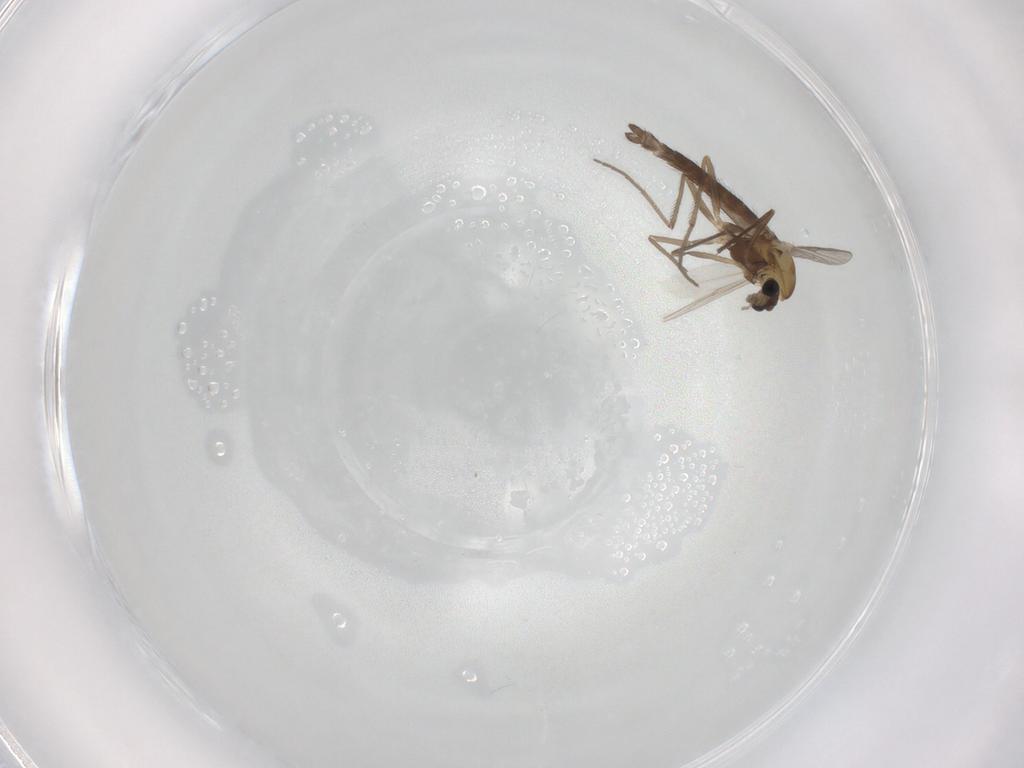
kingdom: Animalia
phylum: Arthropoda
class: Insecta
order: Diptera
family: Chironomidae
